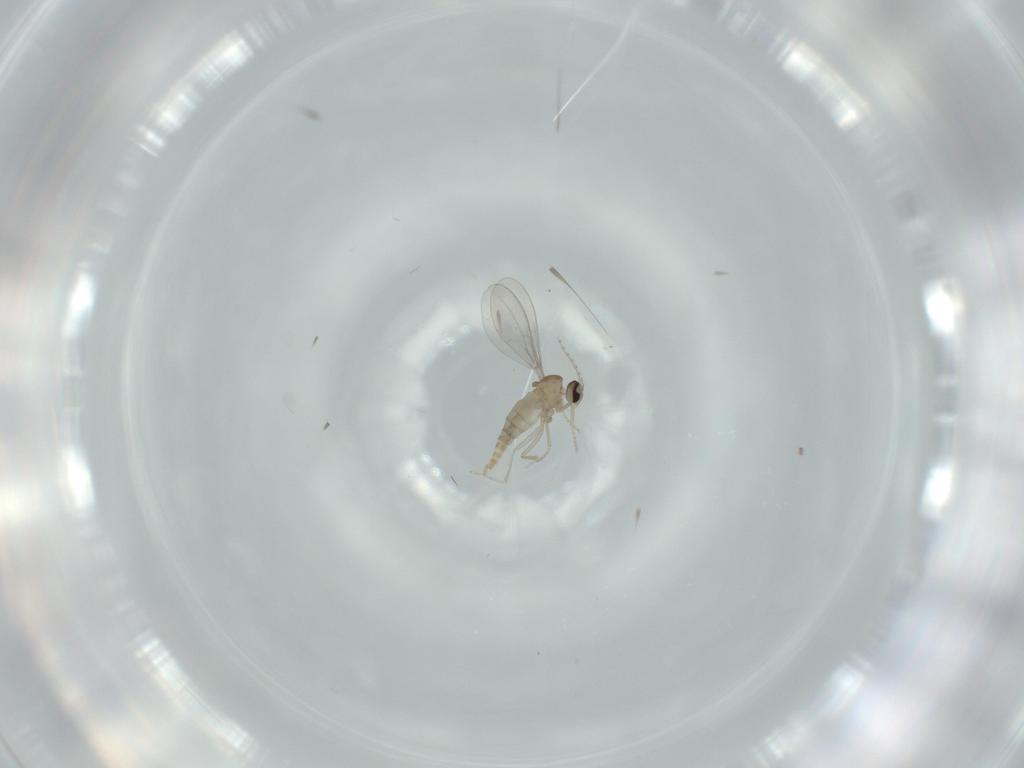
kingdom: Animalia
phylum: Arthropoda
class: Insecta
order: Diptera
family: Cecidomyiidae
